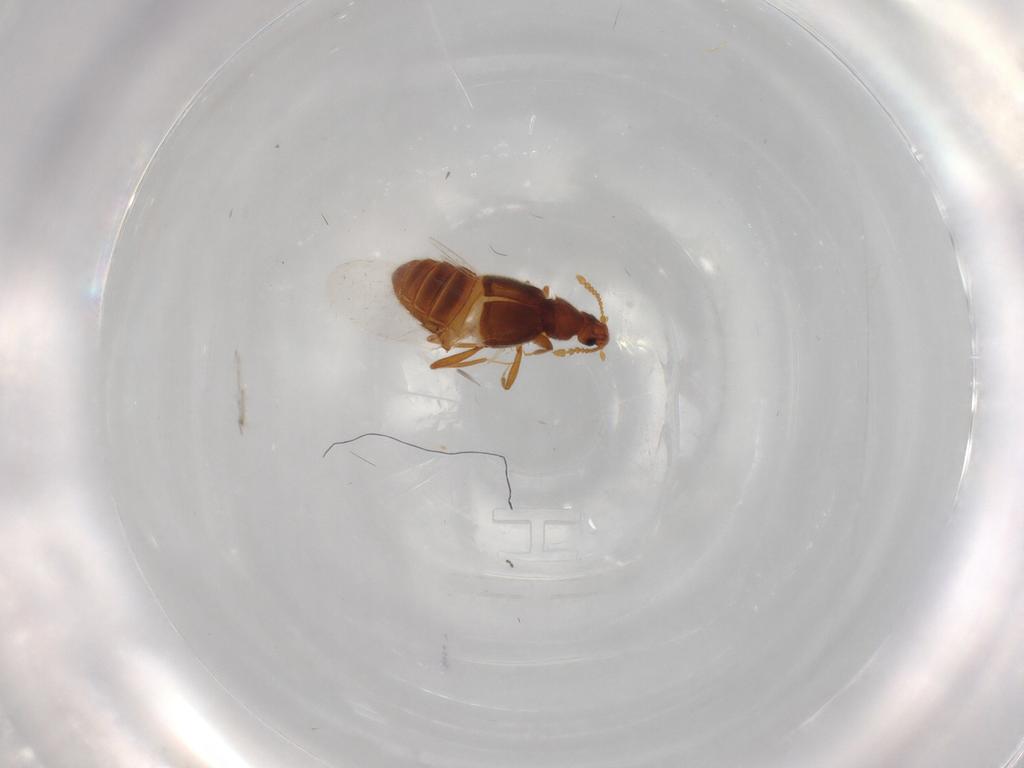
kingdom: Animalia
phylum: Arthropoda
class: Insecta
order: Coleoptera
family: Staphylinidae
